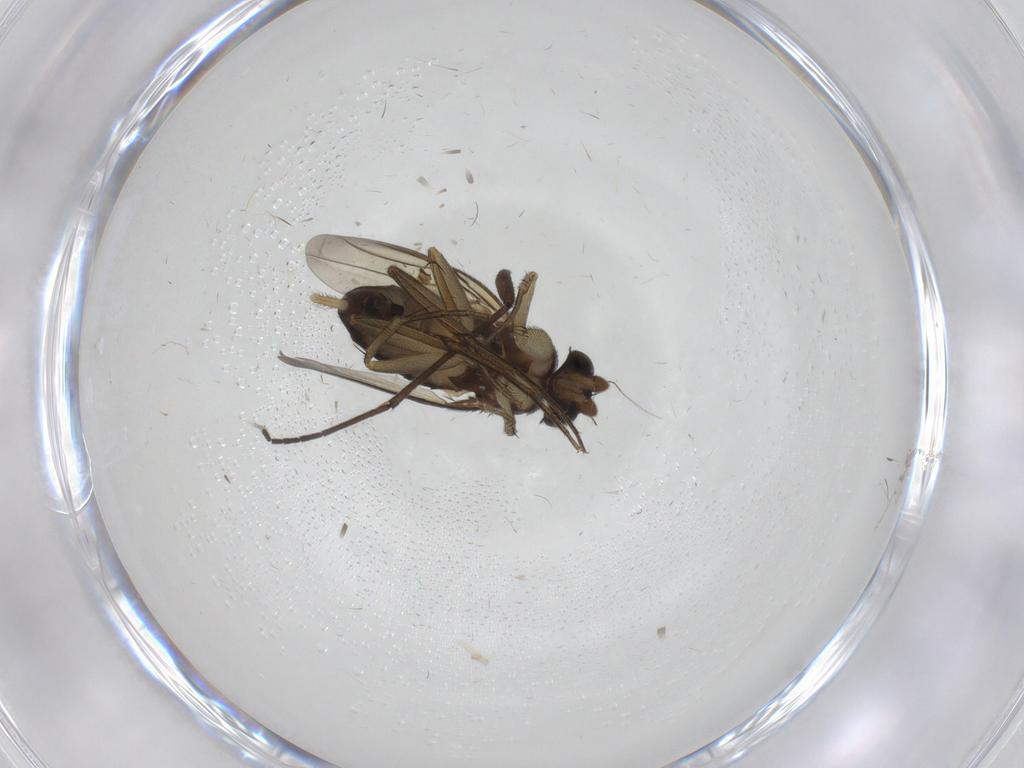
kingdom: Animalia
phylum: Arthropoda
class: Insecta
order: Diptera
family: Phoridae
